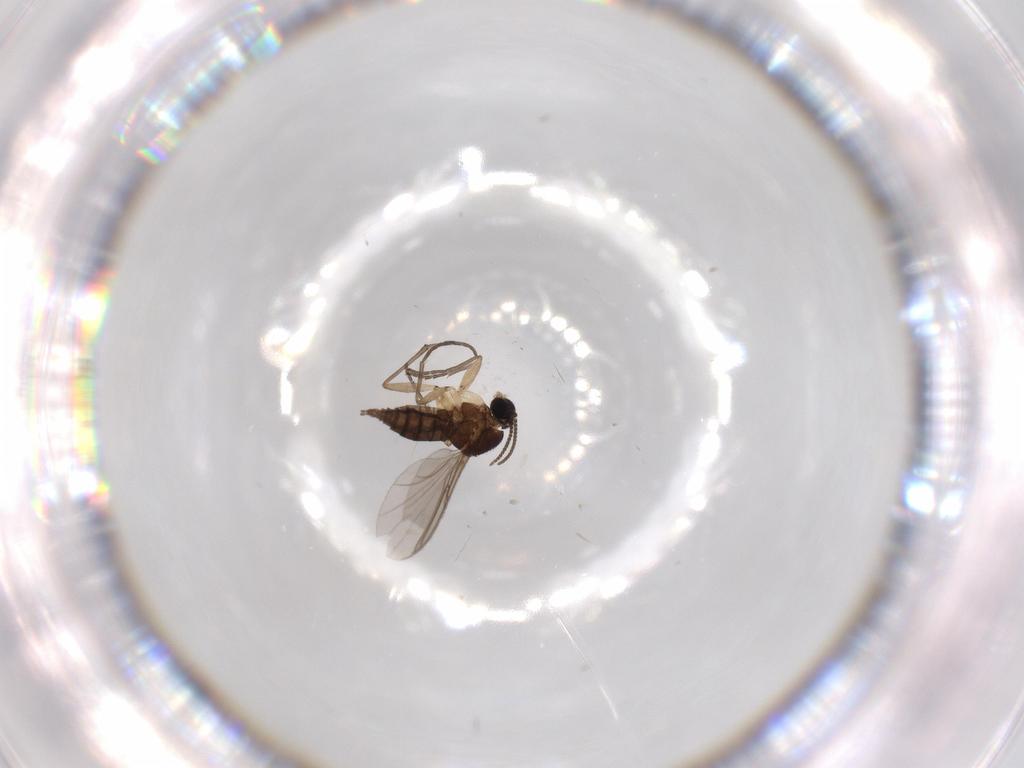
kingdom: Animalia
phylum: Arthropoda
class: Insecta
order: Diptera
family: Sciaridae
